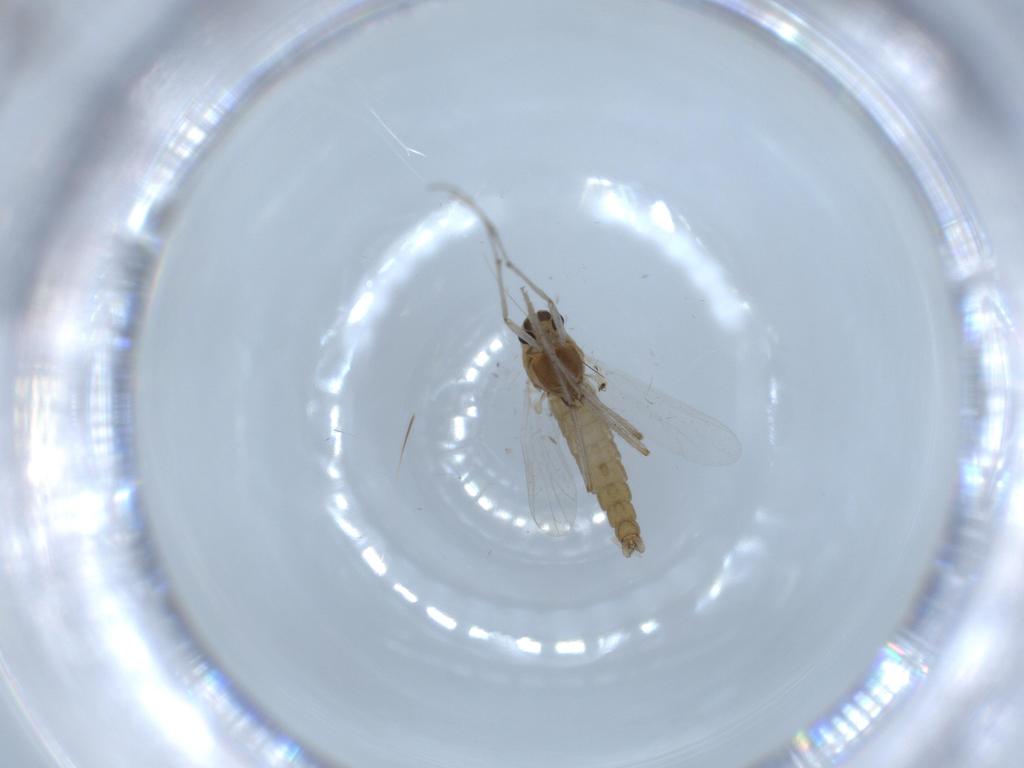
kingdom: Animalia
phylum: Arthropoda
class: Insecta
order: Diptera
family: Chironomidae
